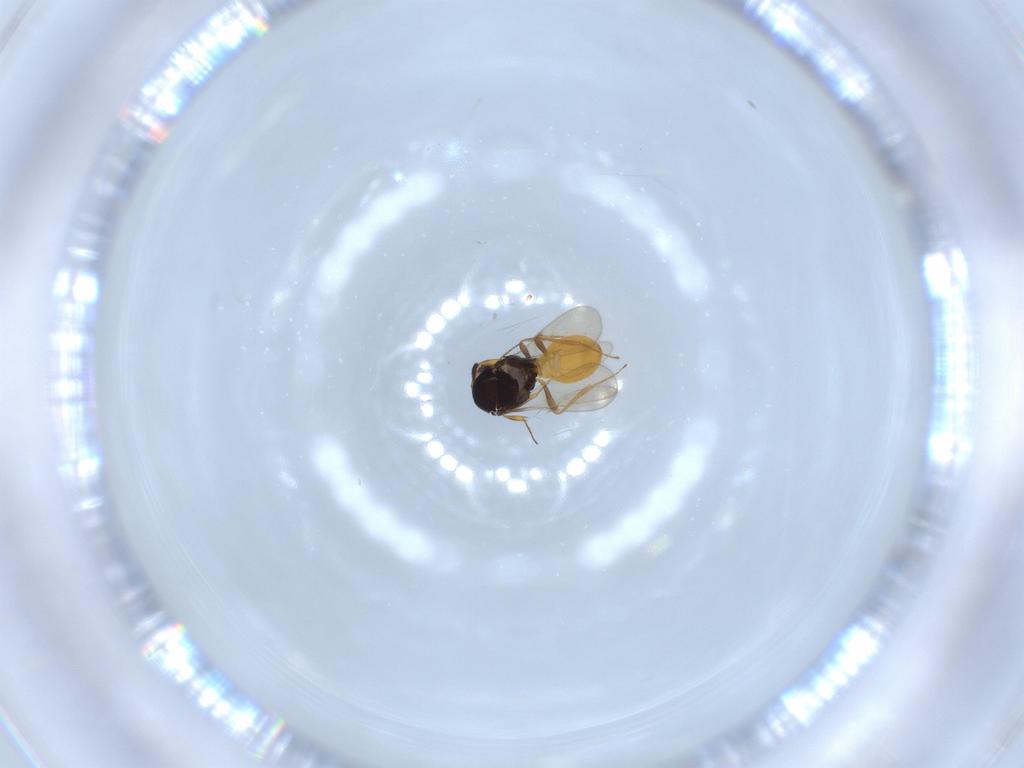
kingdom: Animalia
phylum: Arthropoda
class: Insecta
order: Hymenoptera
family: Scelionidae
